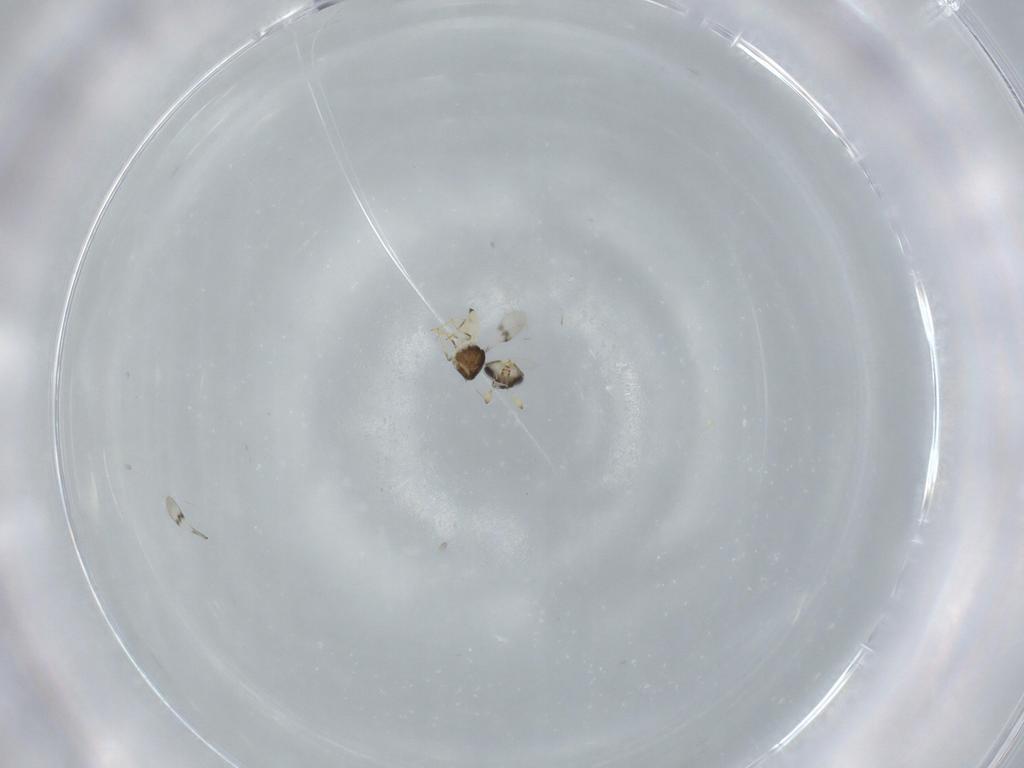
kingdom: Animalia
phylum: Arthropoda
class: Insecta
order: Hymenoptera
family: Scelionidae
